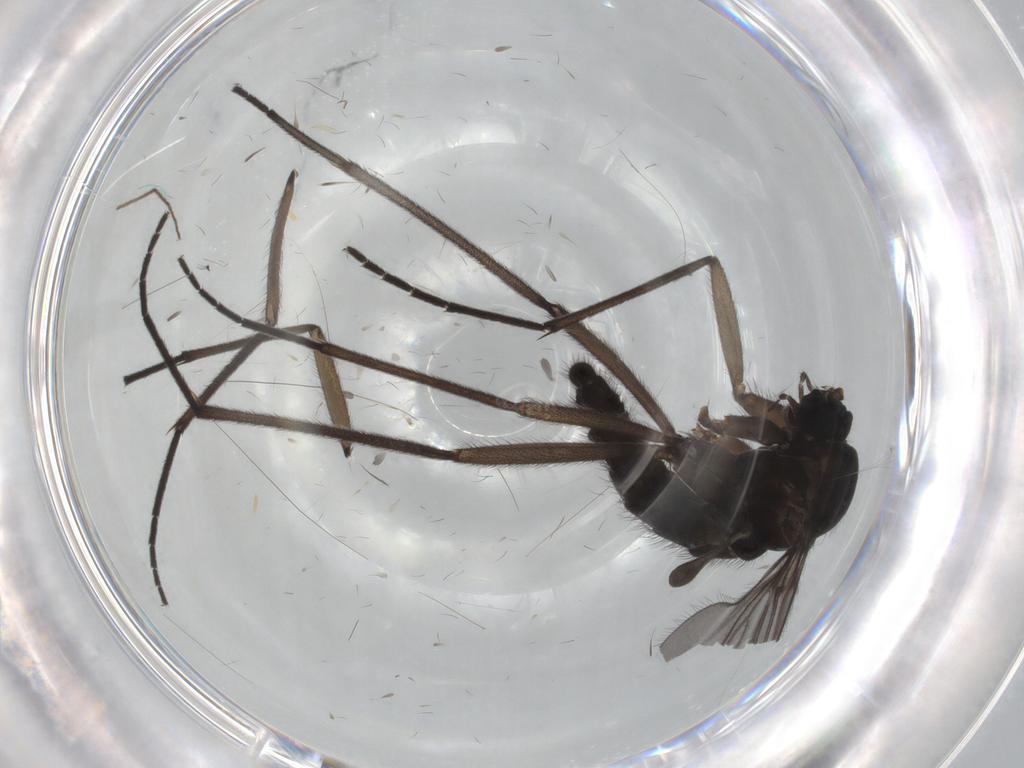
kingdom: Animalia
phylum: Arthropoda
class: Insecta
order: Diptera
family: Sciaridae
